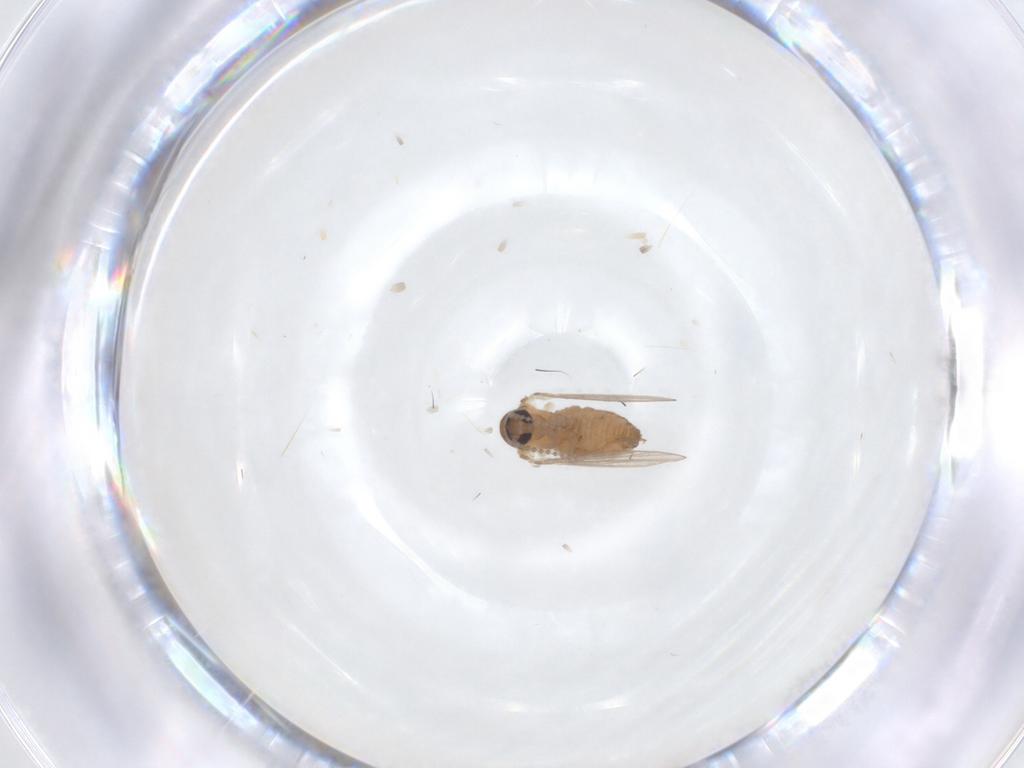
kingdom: Animalia
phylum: Arthropoda
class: Insecta
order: Diptera
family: Psychodidae
